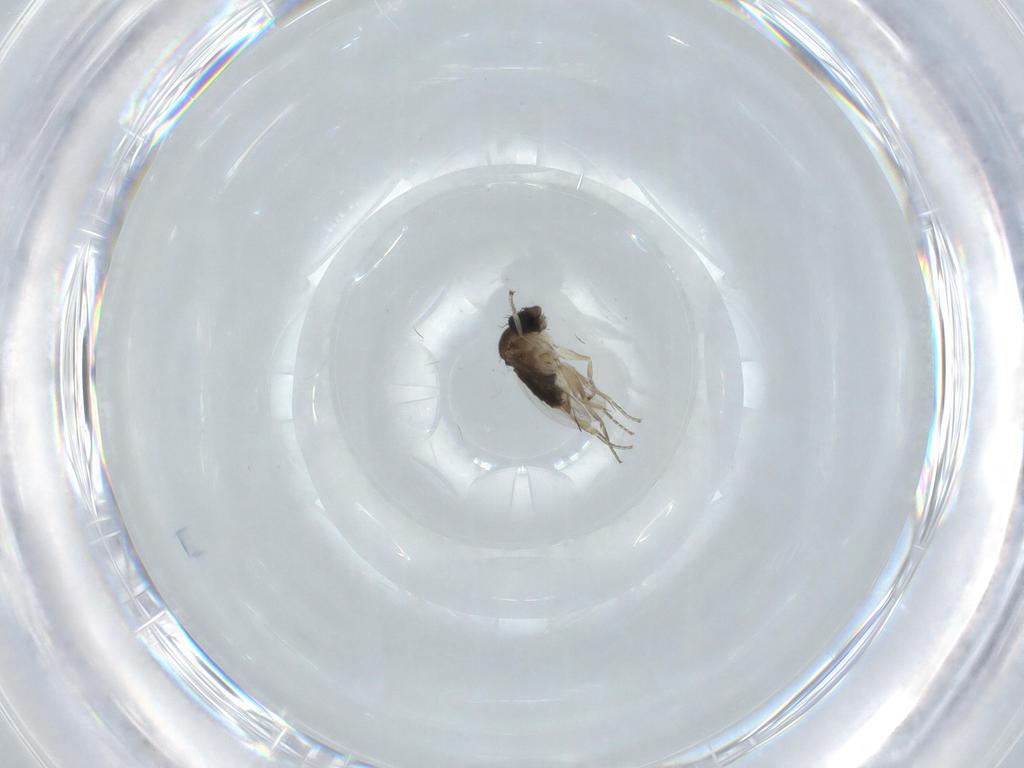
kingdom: Animalia
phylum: Arthropoda
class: Insecta
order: Diptera
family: Phoridae
